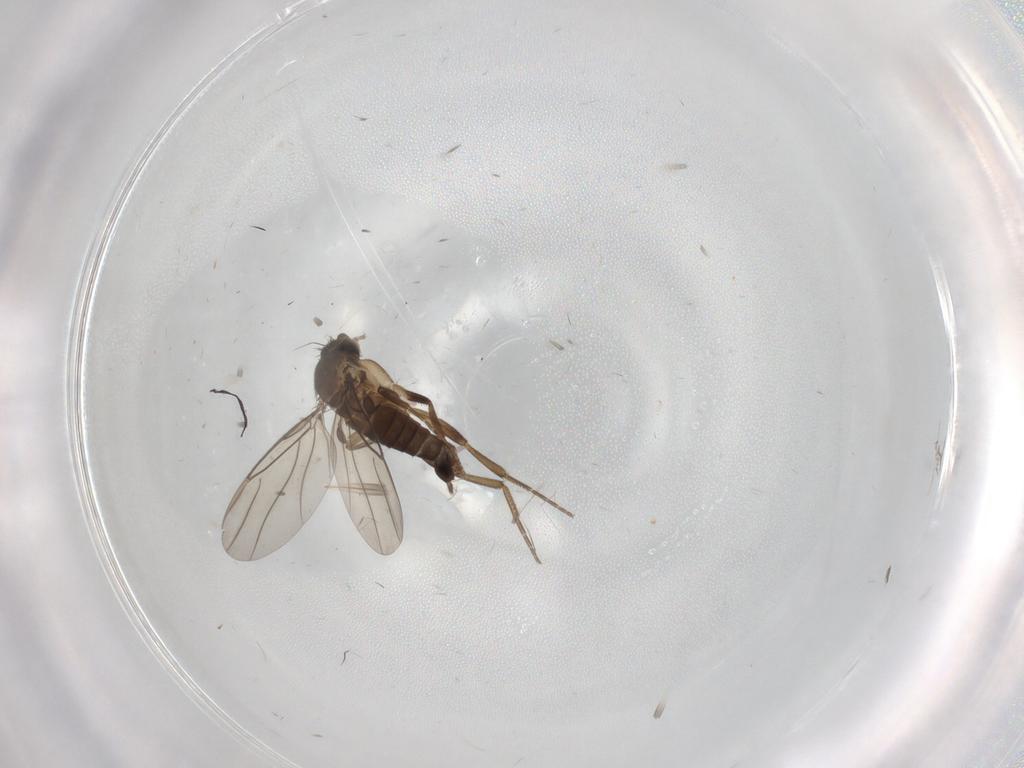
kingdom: Animalia
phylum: Arthropoda
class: Insecta
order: Diptera
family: Phoridae
